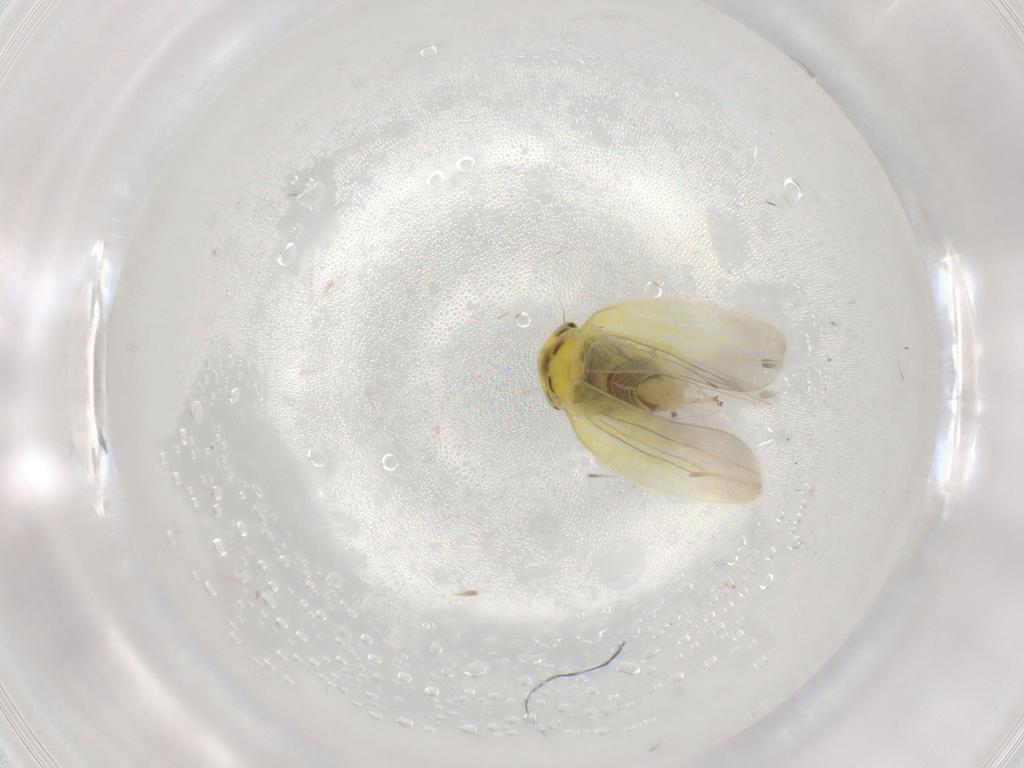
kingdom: Animalia
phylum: Arthropoda
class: Insecta
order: Hemiptera
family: Cicadellidae
